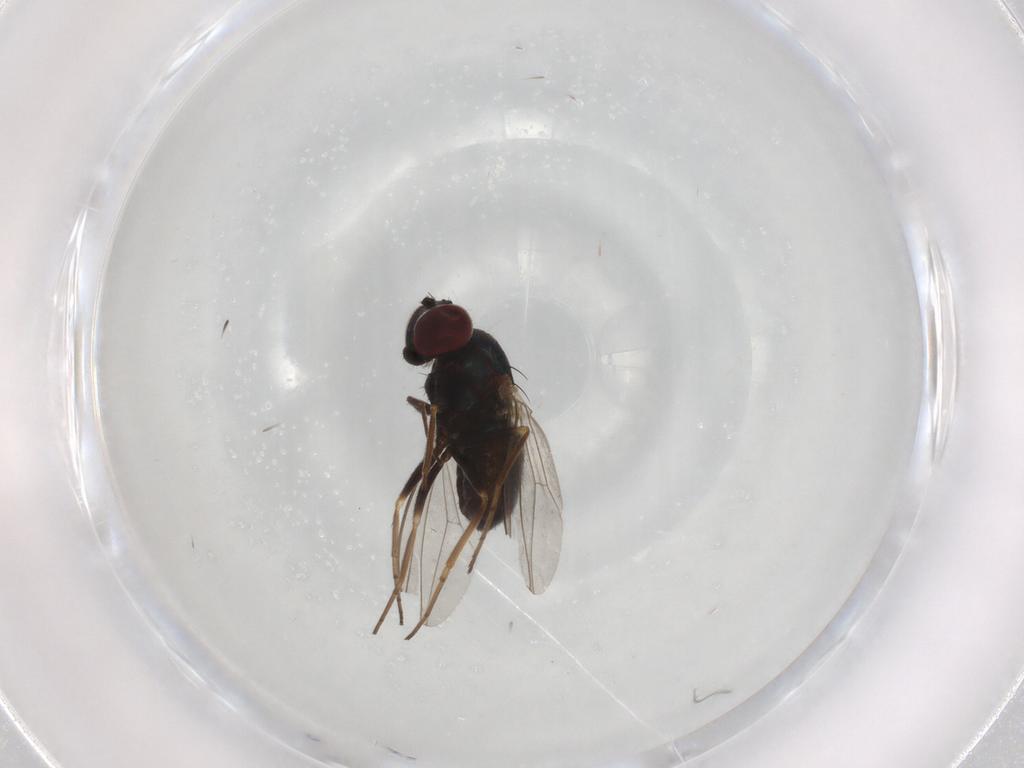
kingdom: Animalia
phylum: Arthropoda
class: Insecta
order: Diptera
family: Dolichopodidae
